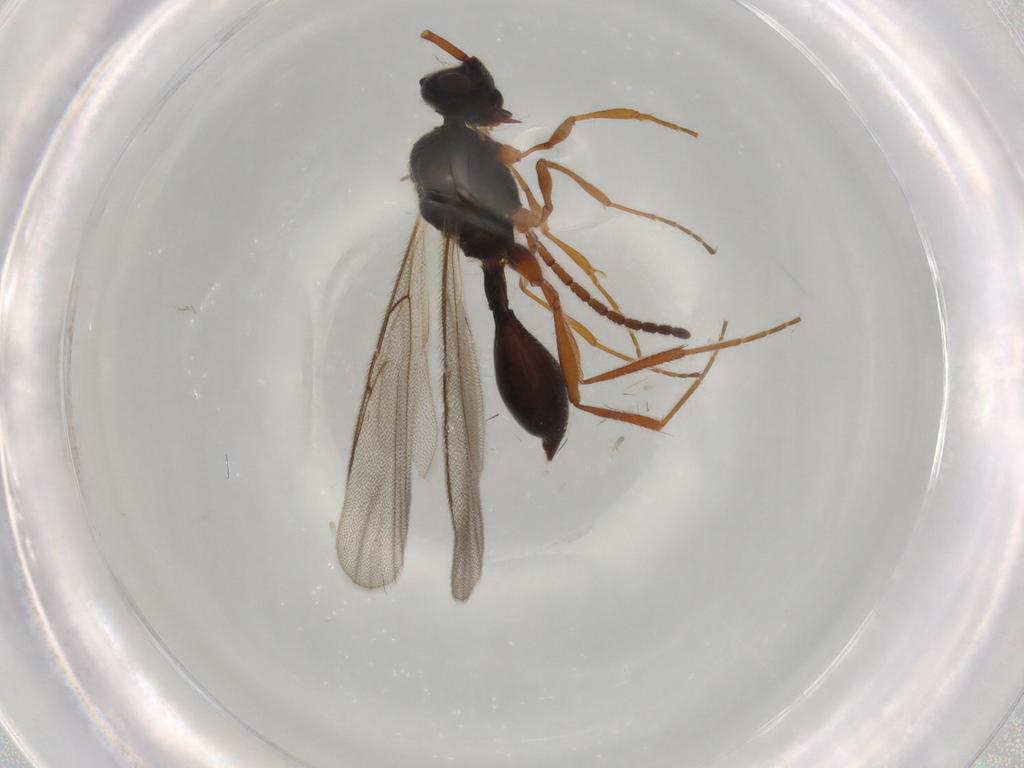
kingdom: Animalia
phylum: Arthropoda
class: Insecta
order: Hymenoptera
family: Diapriidae
